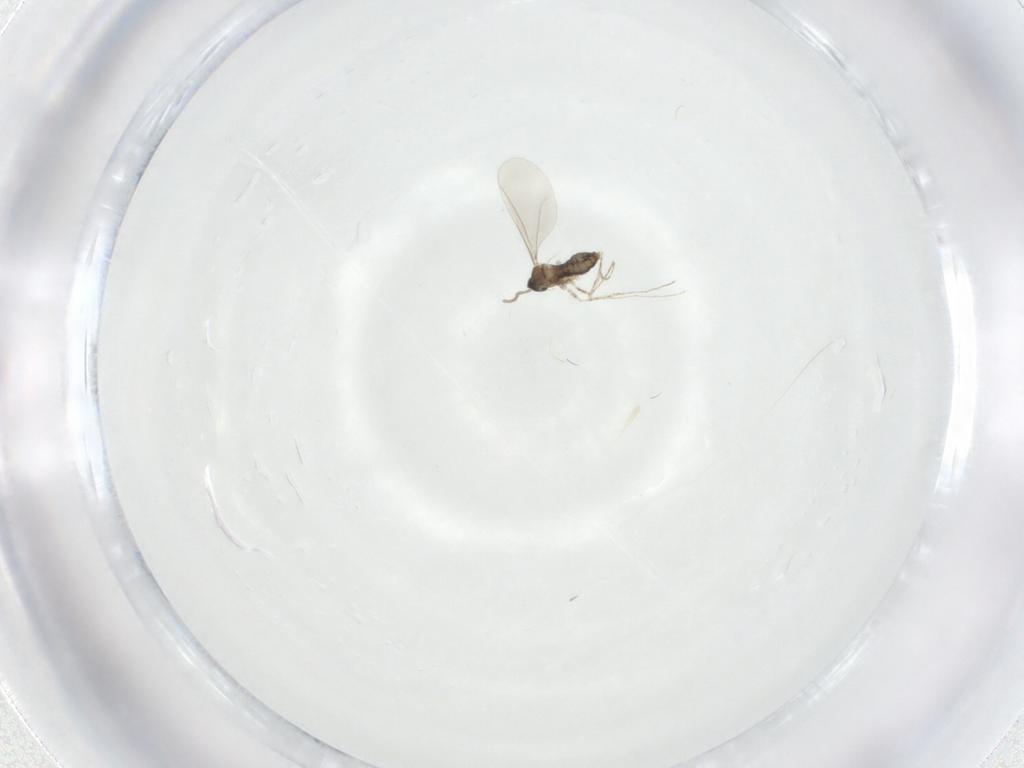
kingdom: Animalia
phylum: Arthropoda
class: Insecta
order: Diptera
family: Cecidomyiidae
